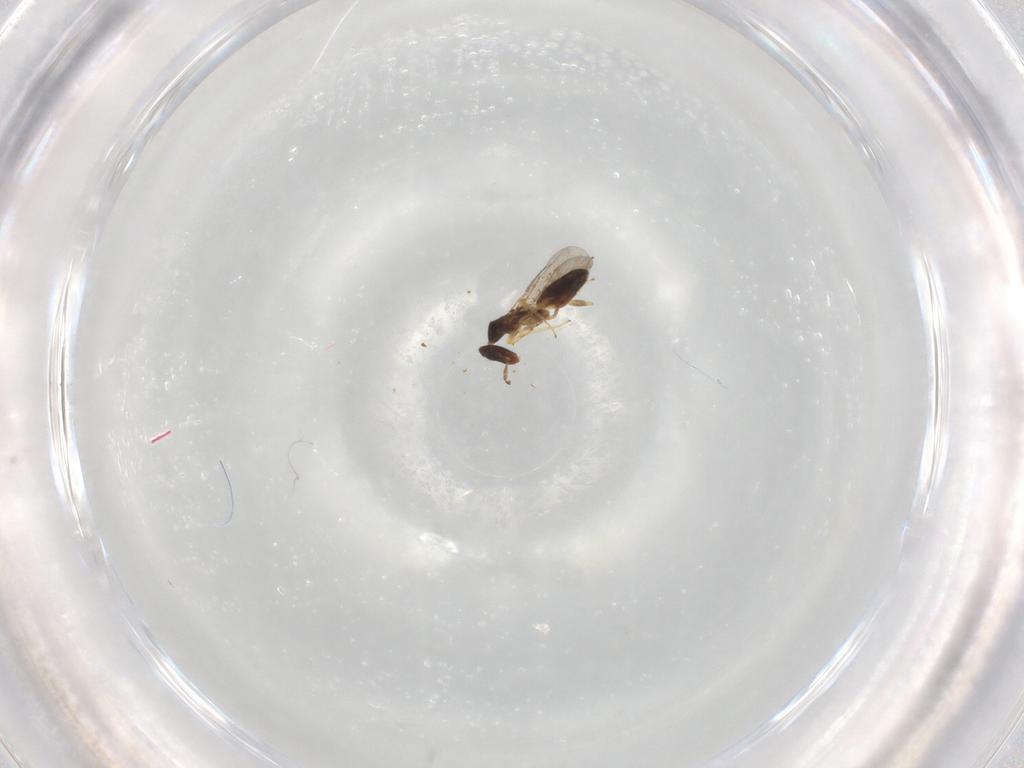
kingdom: Animalia
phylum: Arthropoda
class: Insecta
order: Hymenoptera
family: Eulophidae
